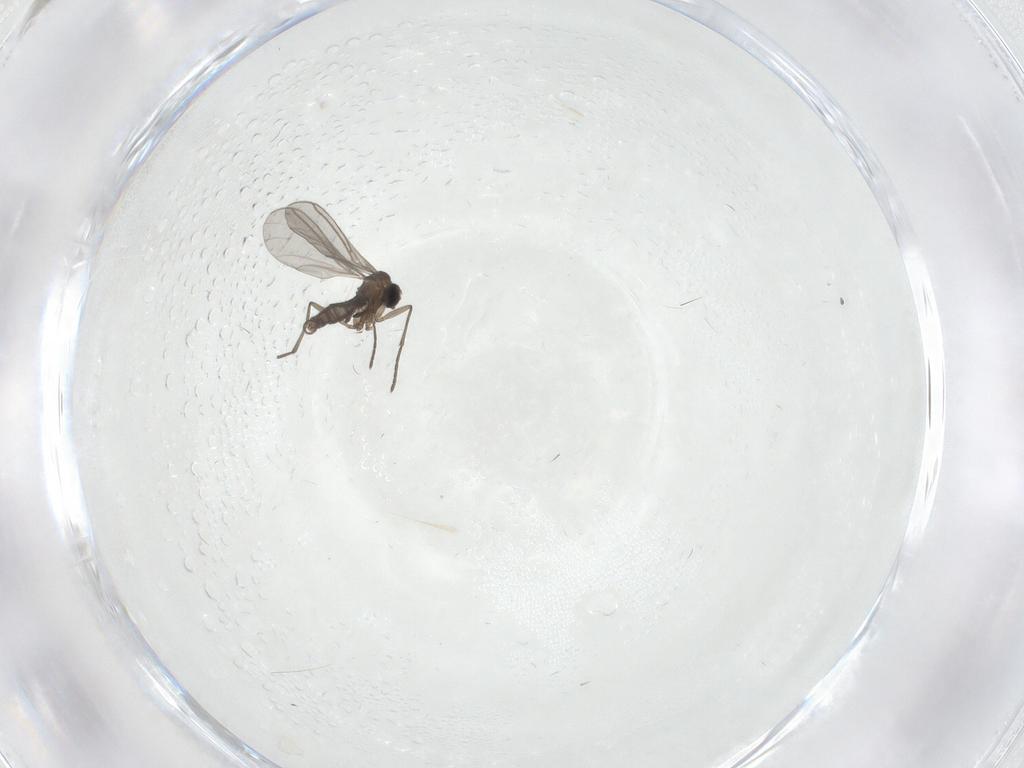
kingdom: Animalia
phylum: Arthropoda
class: Insecta
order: Diptera
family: Dolichopodidae
